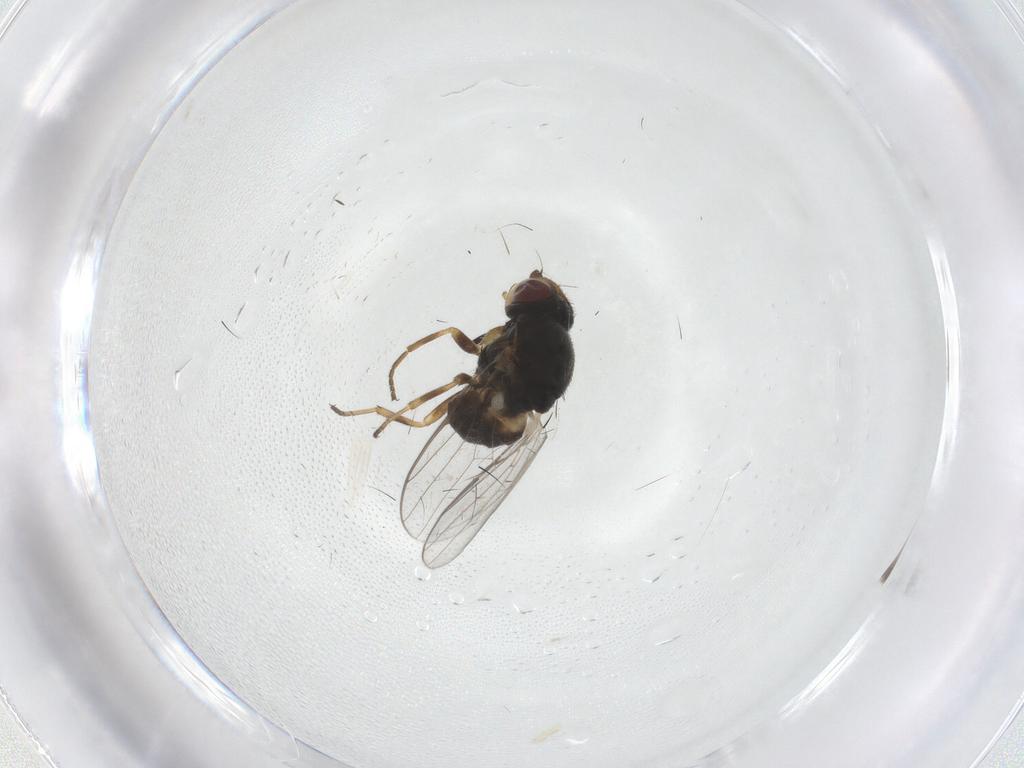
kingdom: Animalia
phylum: Arthropoda
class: Insecta
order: Diptera
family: Chloropidae
